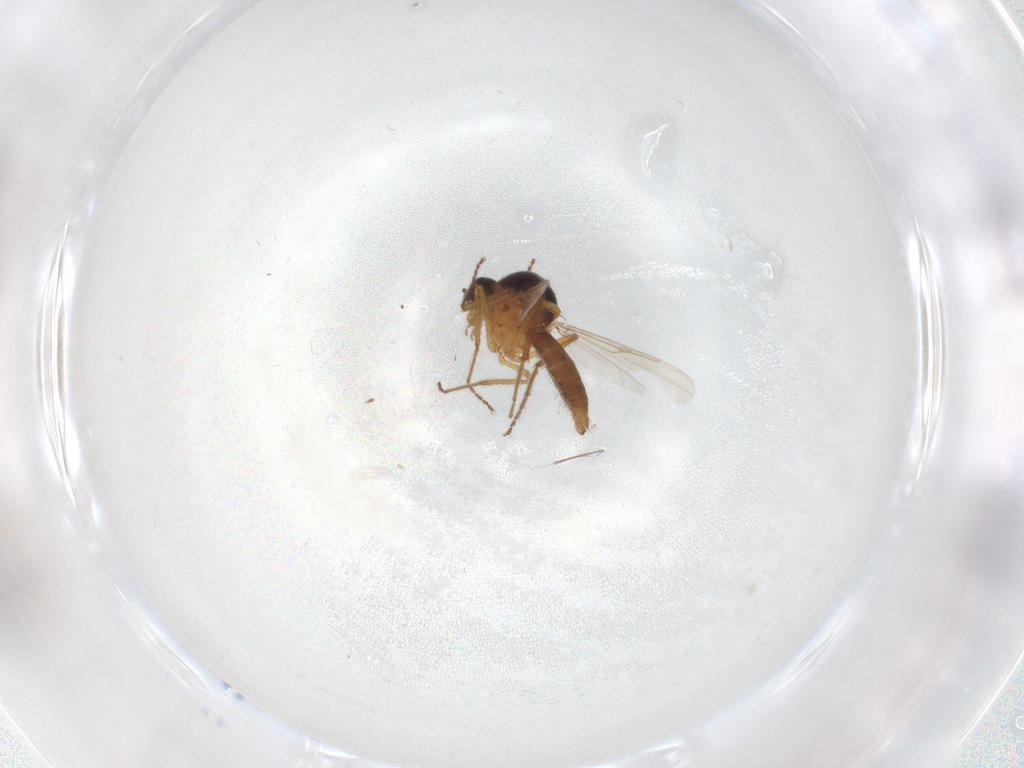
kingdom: Animalia
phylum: Arthropoda
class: Insecta
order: Diptera
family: Ceratopogonidae
